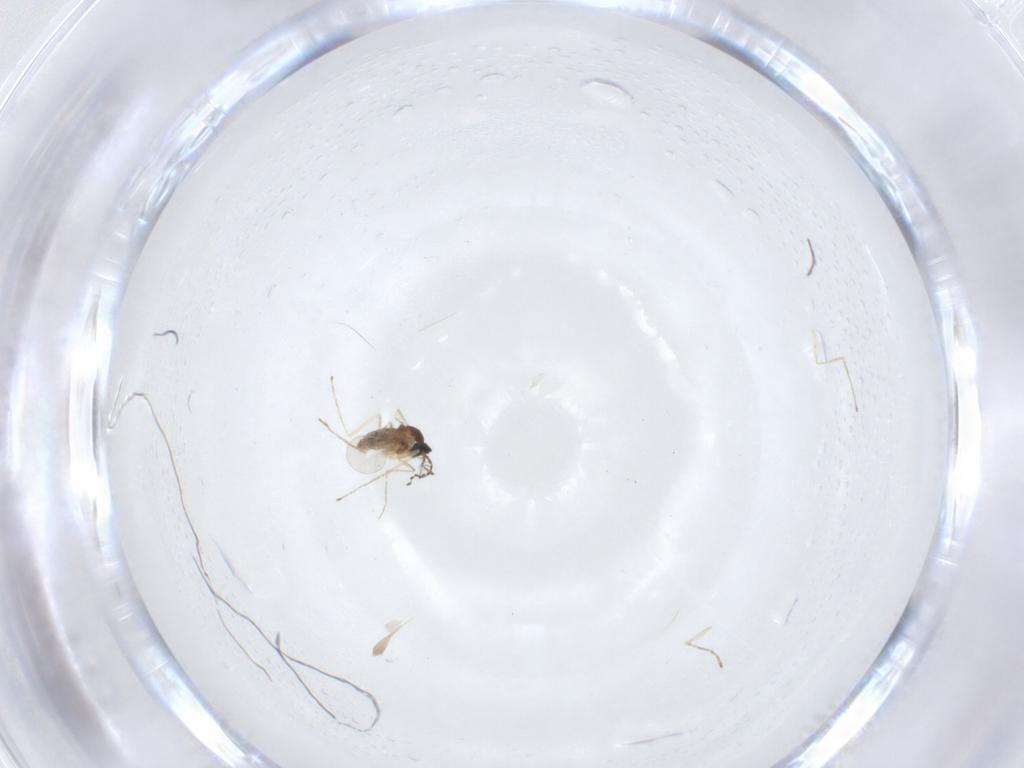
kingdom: Animalia
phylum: Arthropoda
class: Insecta
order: Diptera
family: Cecidomyiidae
